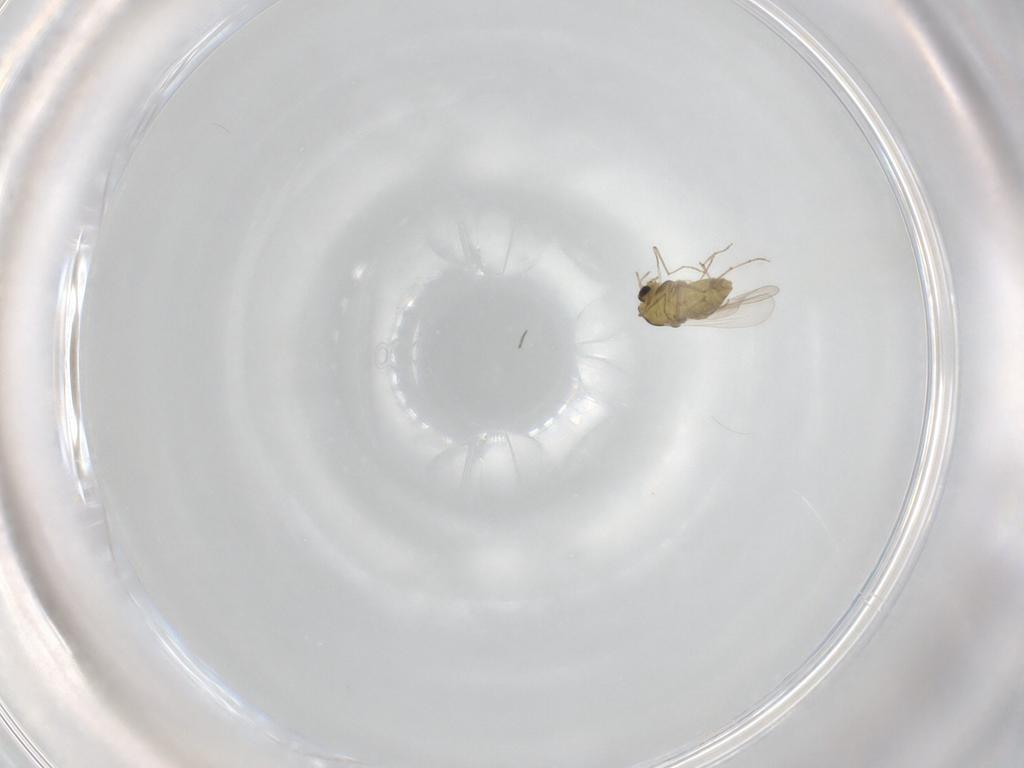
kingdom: Animalia
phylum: Arthropoda
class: Insecta
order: Diptera
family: Chironomidae
